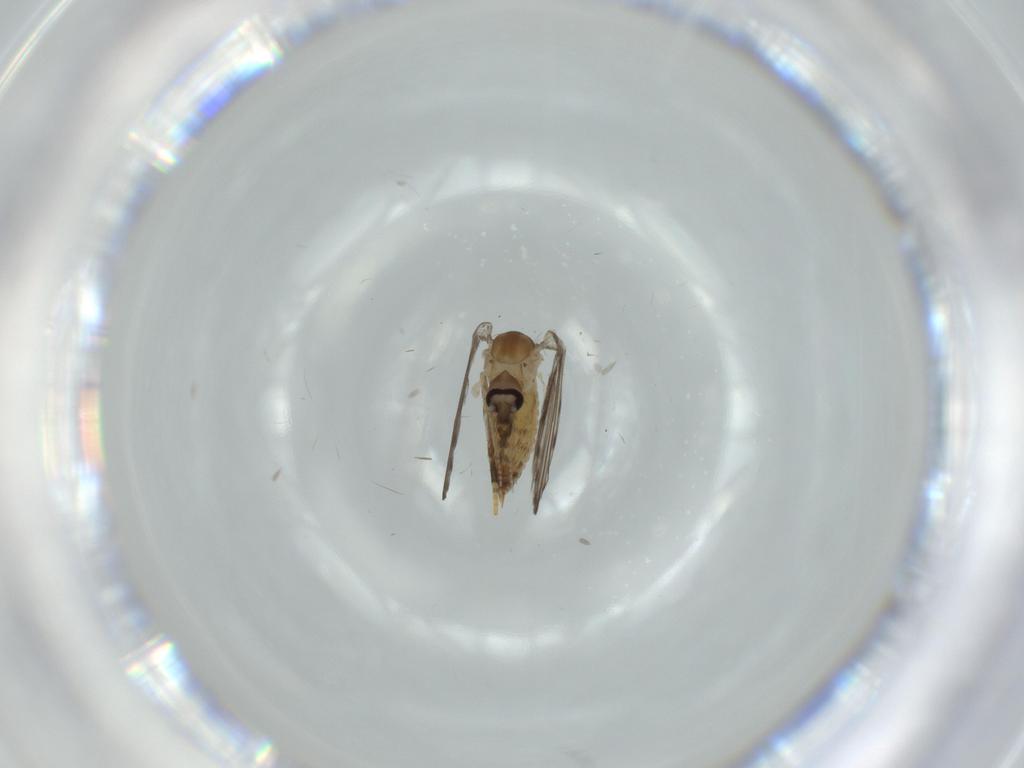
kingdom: Animalia
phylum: Arthropoda
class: Insecta
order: Diptera
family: Psychodidae
